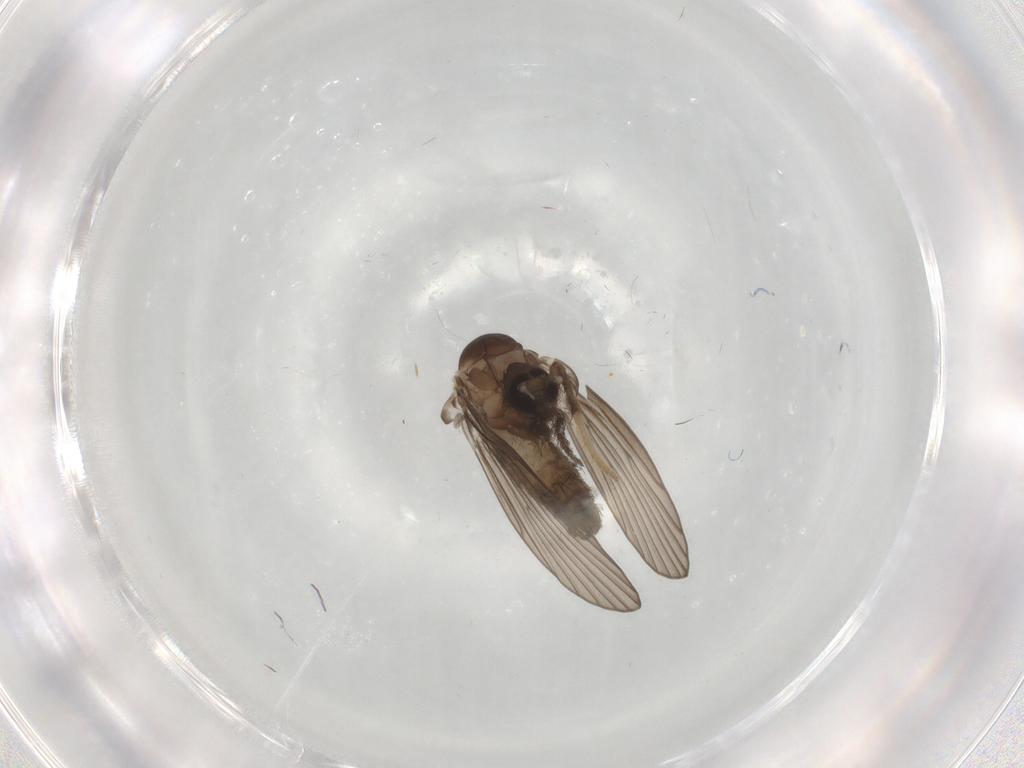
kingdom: Animalia
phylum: Arthropoda
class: Insecta
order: Diptera
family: Psychodidae
